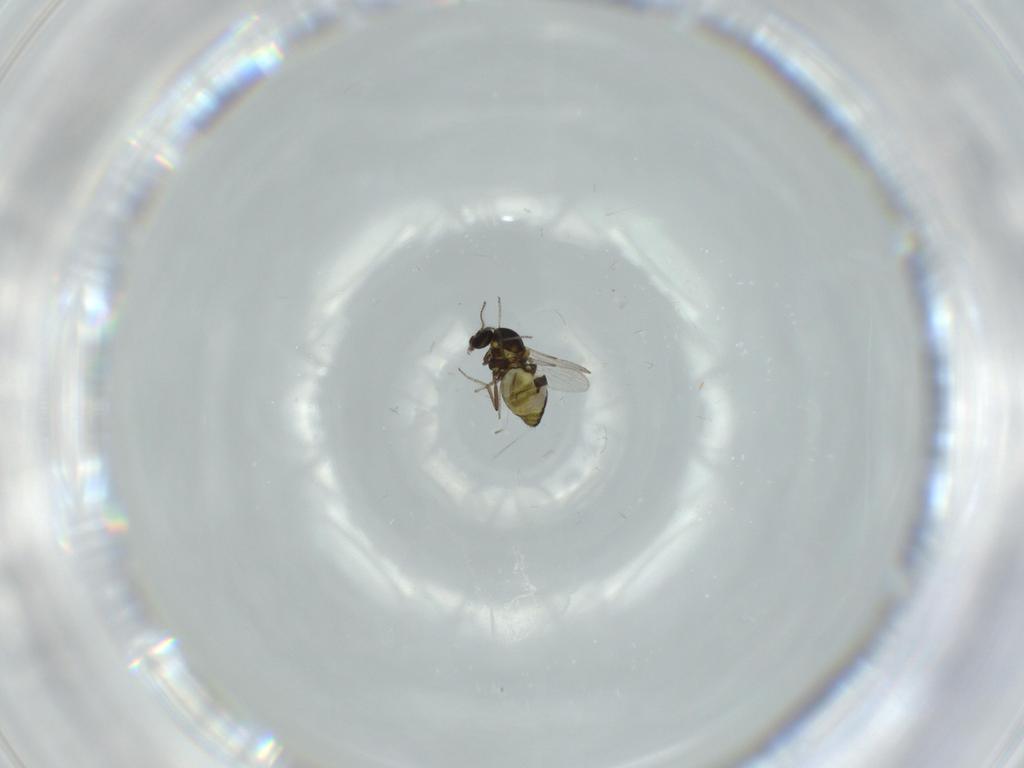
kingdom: Animalia
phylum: Arthropoda
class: Insecta
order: Diptera
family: Ceratopogonidae
